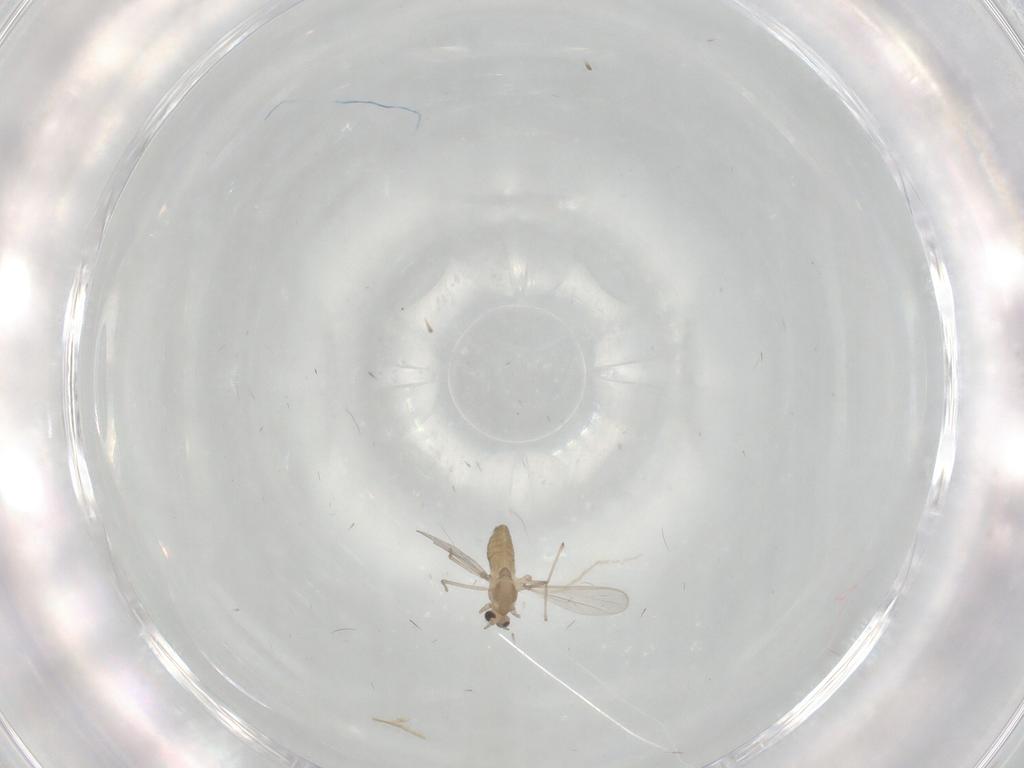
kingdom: Animalia
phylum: Arthropoda
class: Insecta
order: Diptera
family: Chironomidae
